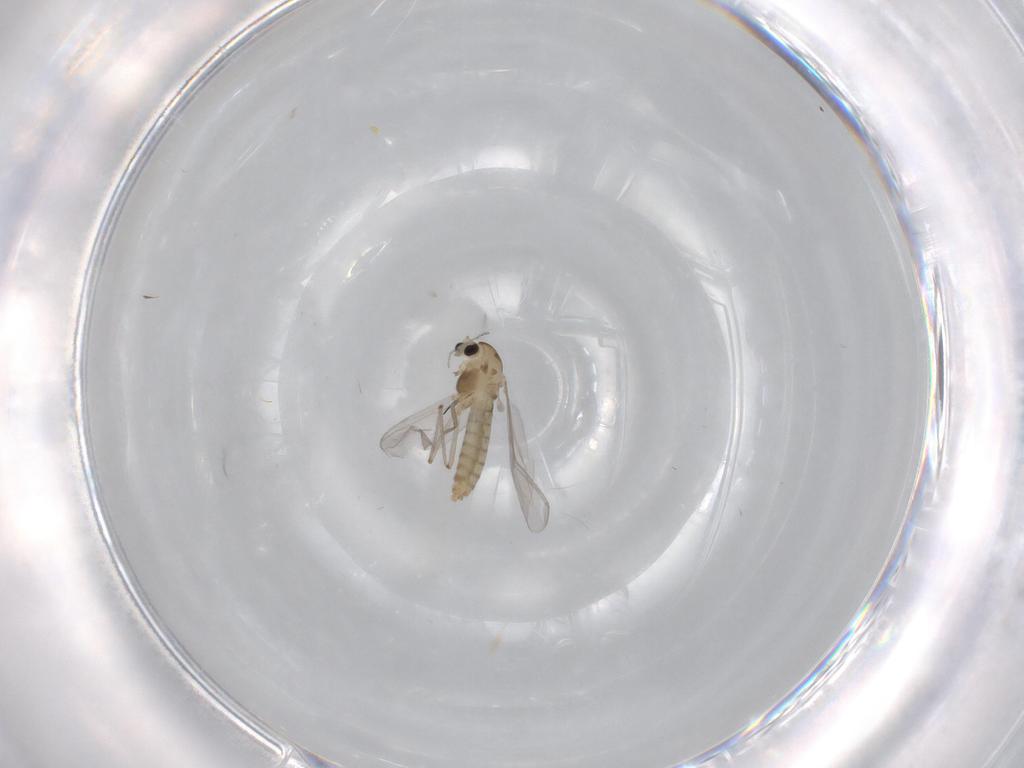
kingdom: Animalia
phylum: Arthropoda
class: Insecta
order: Diptera
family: Chironomidae
